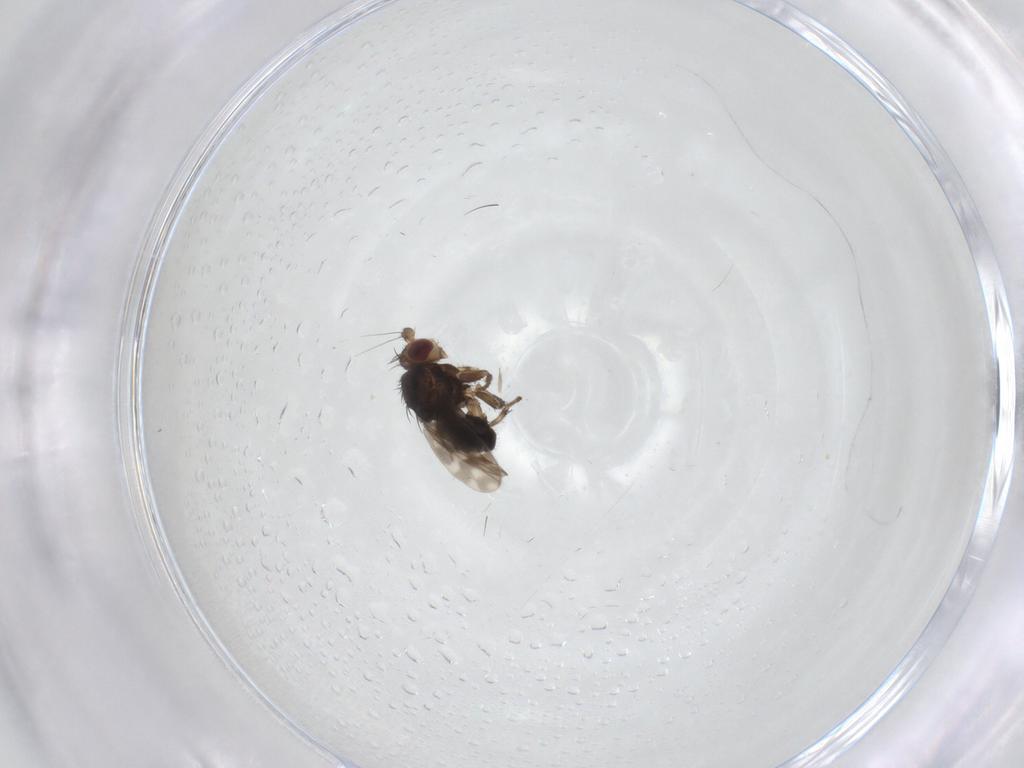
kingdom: Animalia
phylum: Arthropoda
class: Insecta
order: Diptera
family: Sphaeroceridae
